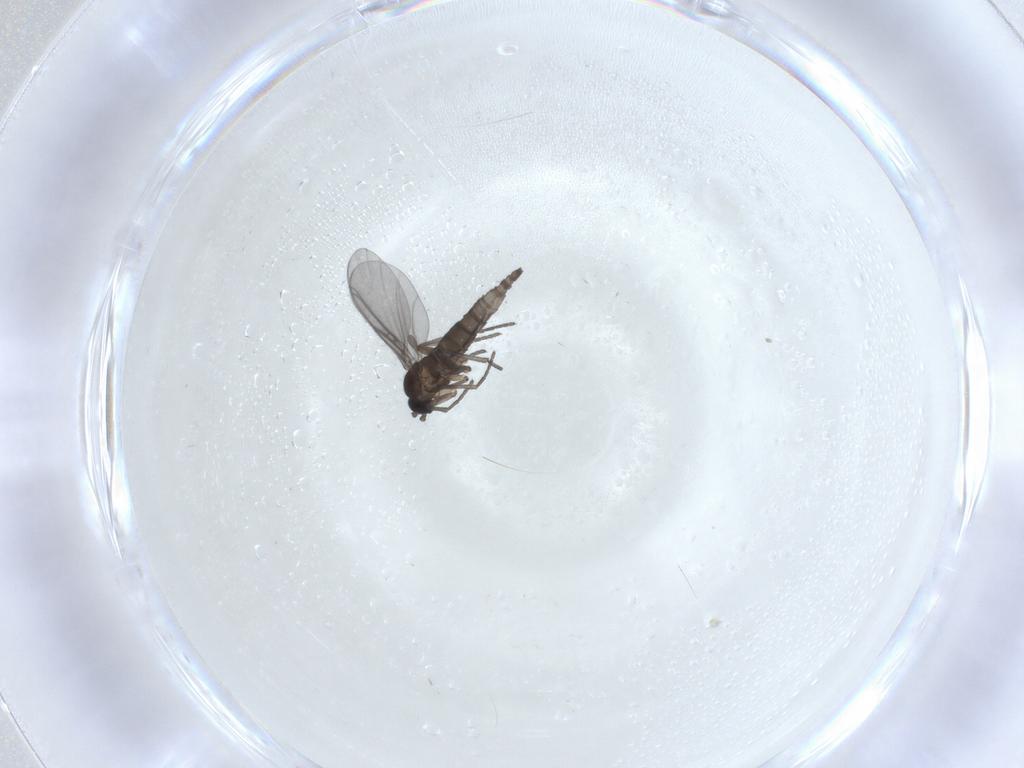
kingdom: Animalia
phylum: Arthropoda
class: Insecta
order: Diptera
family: Sciaridae
